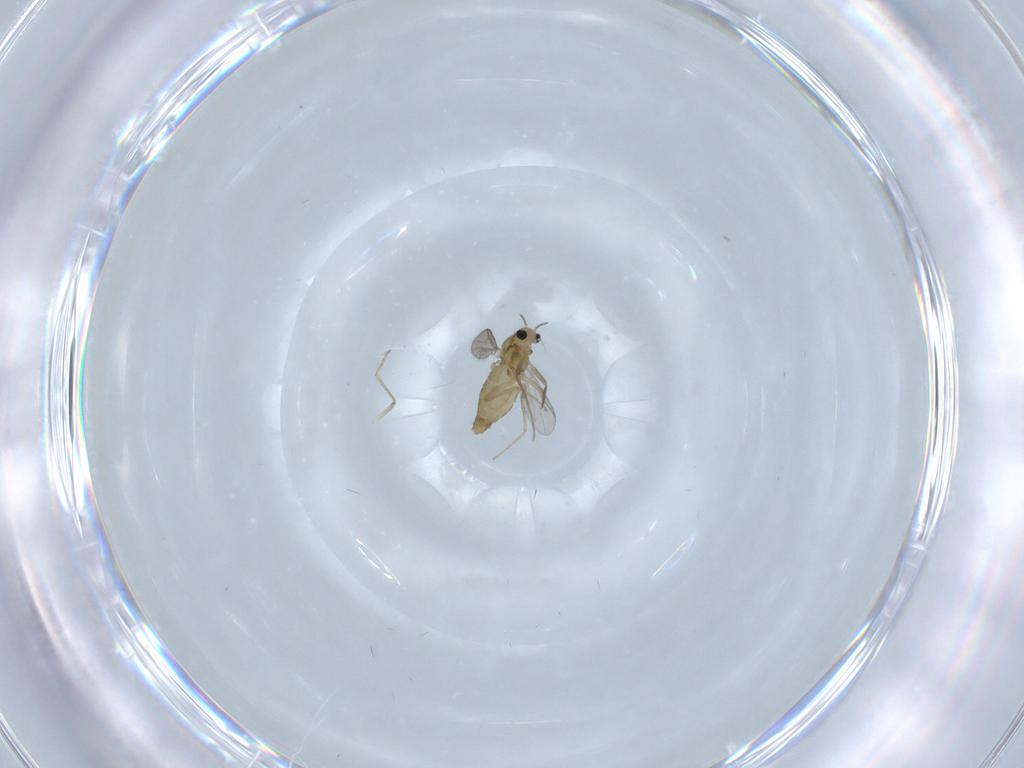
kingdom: Animalia
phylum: Arthropoda
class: Insecta
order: Diptera
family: Chironomidae
